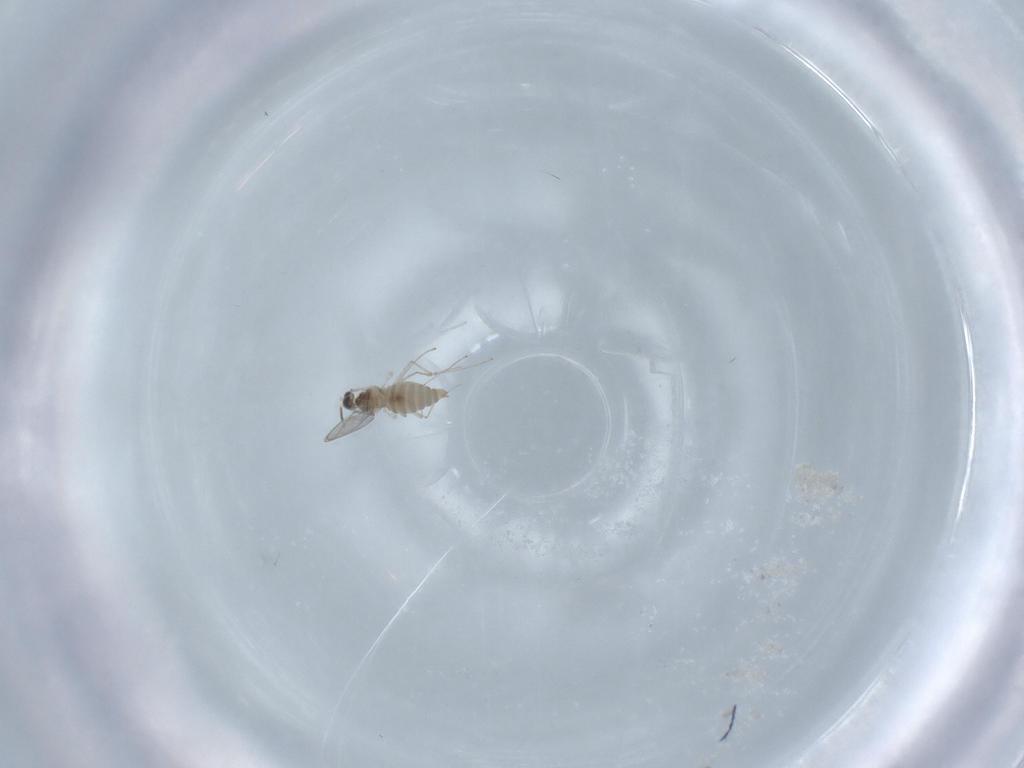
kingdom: Animalia
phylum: Arthropoda
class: Insecta
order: Diptera
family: Cecidomyiidae
